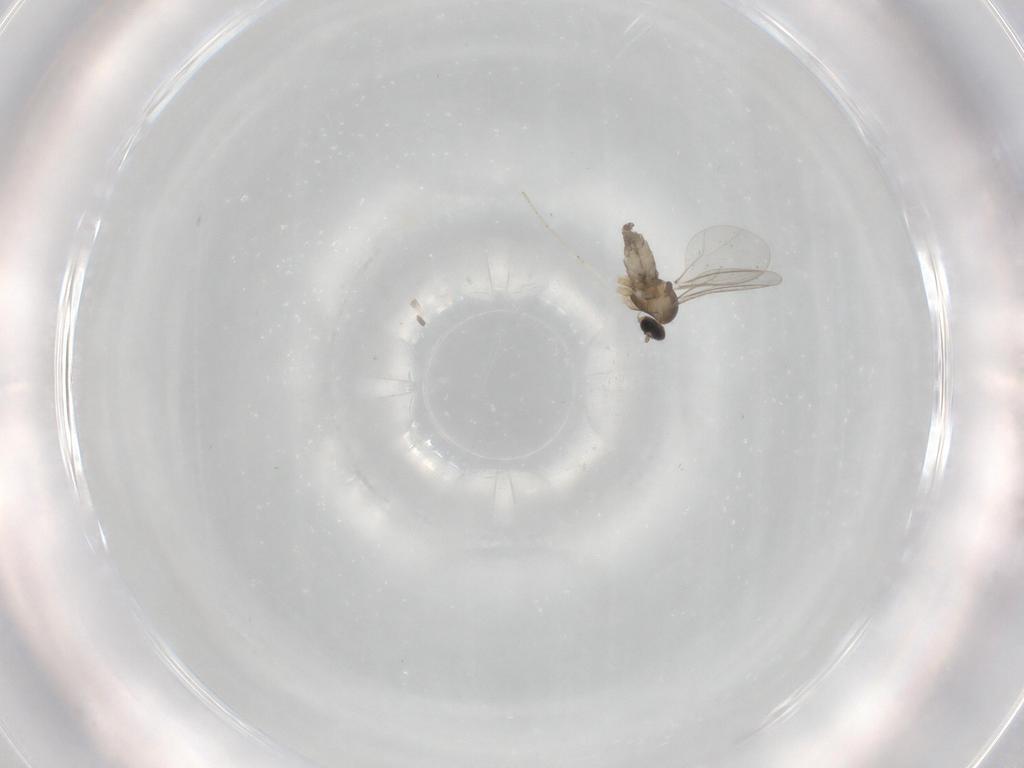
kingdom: Animalia
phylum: Arthropoda
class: Insecta
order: Diptera
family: Cecidomyiidae
